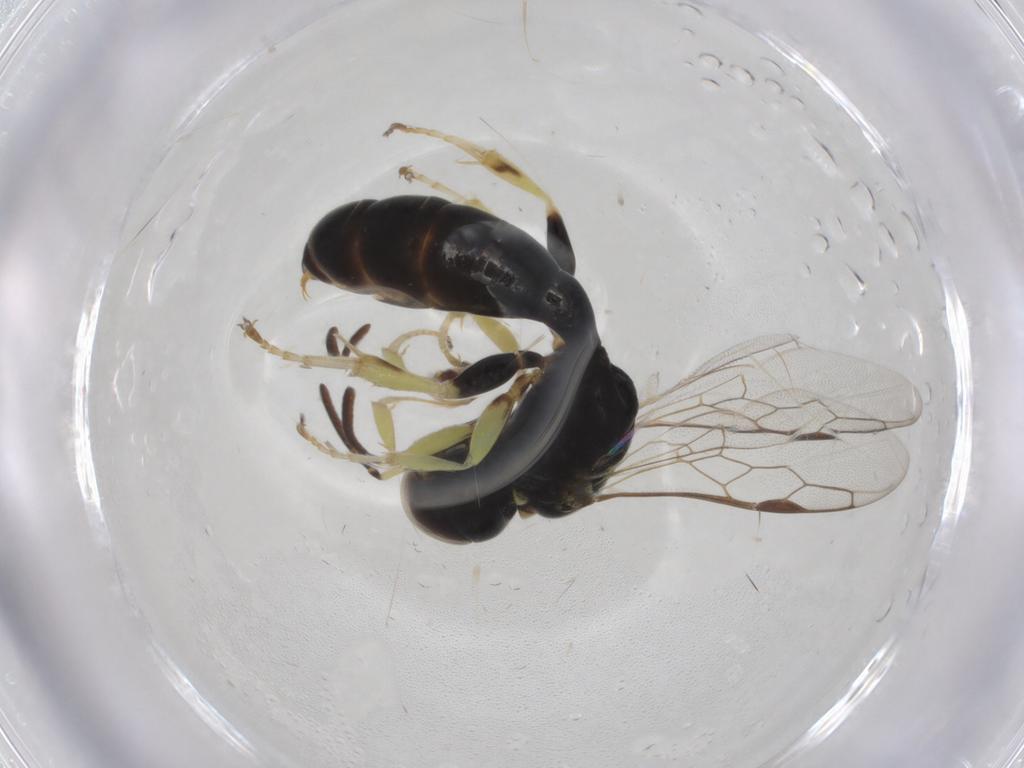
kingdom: Animalia
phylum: Arthropoda
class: Insecta
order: Hymenoptera
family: Crabronidae
